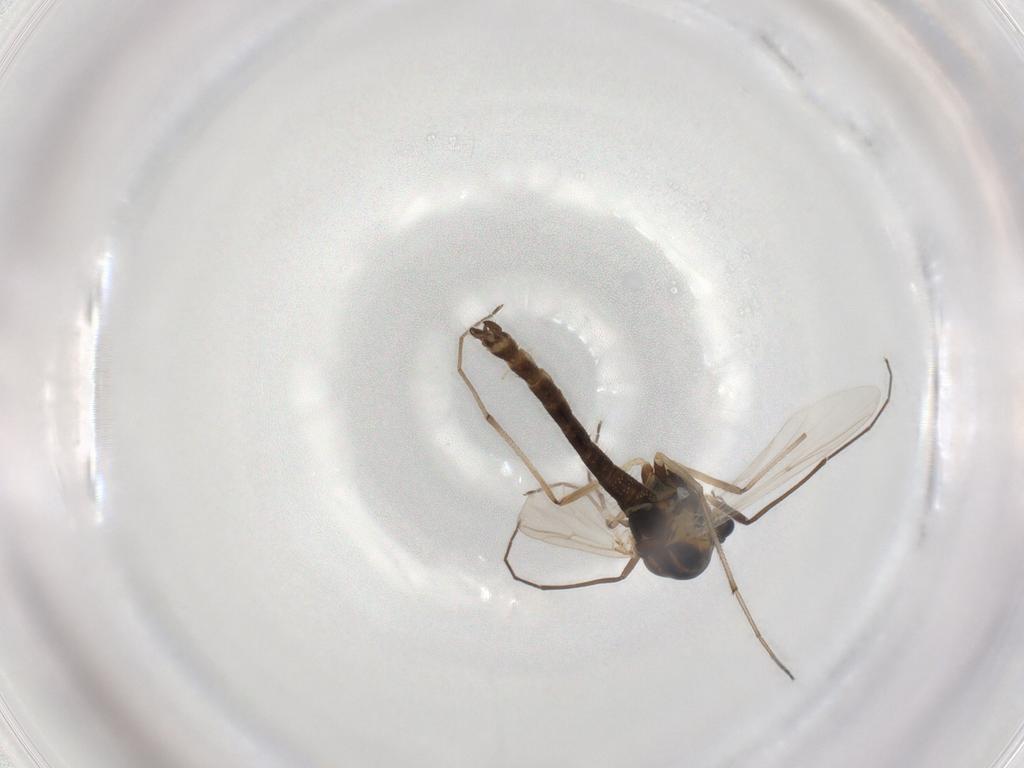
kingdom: Animalia
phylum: Arthropoda
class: Insecta
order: Diptera
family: Chironomidae
